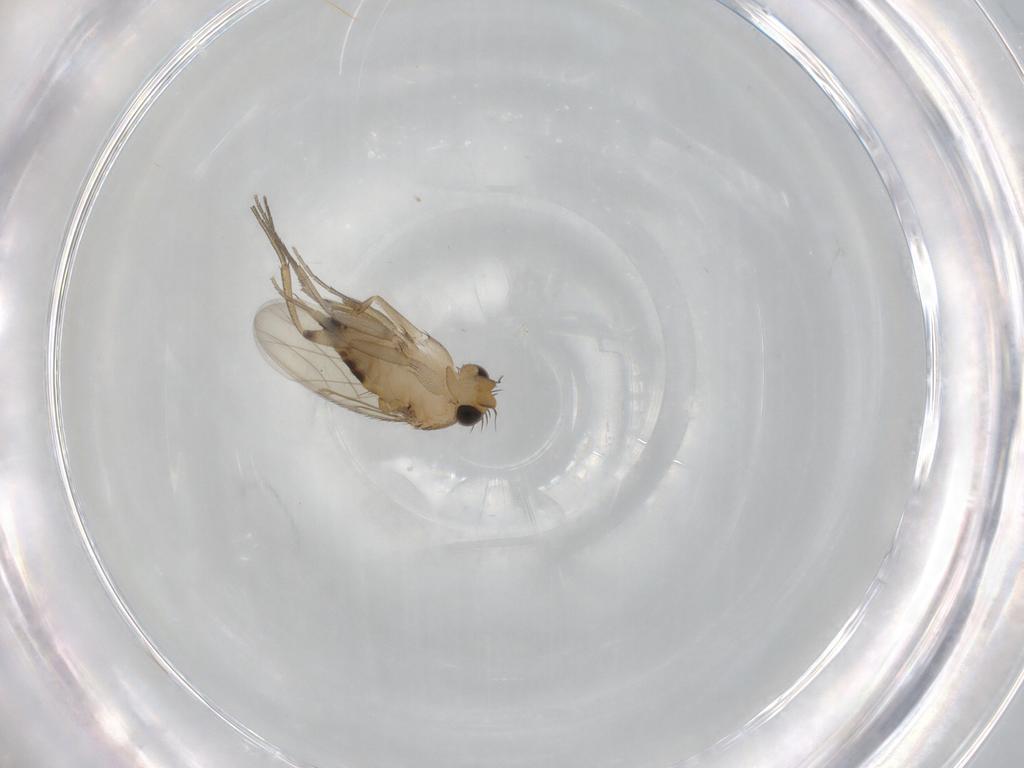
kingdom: Animalia
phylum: Arthropoda
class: Insecta
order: Diptera
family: Phoridae
